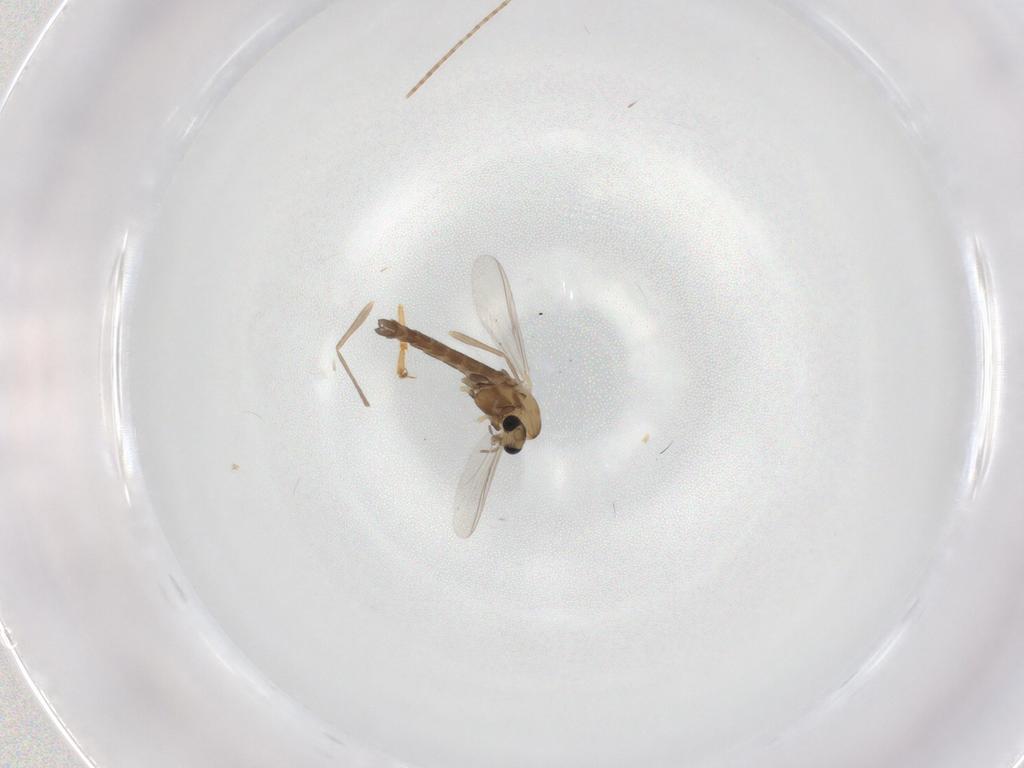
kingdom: Animalia
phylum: Arthropoda
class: Insecta
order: Diptera
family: Chironomidae
